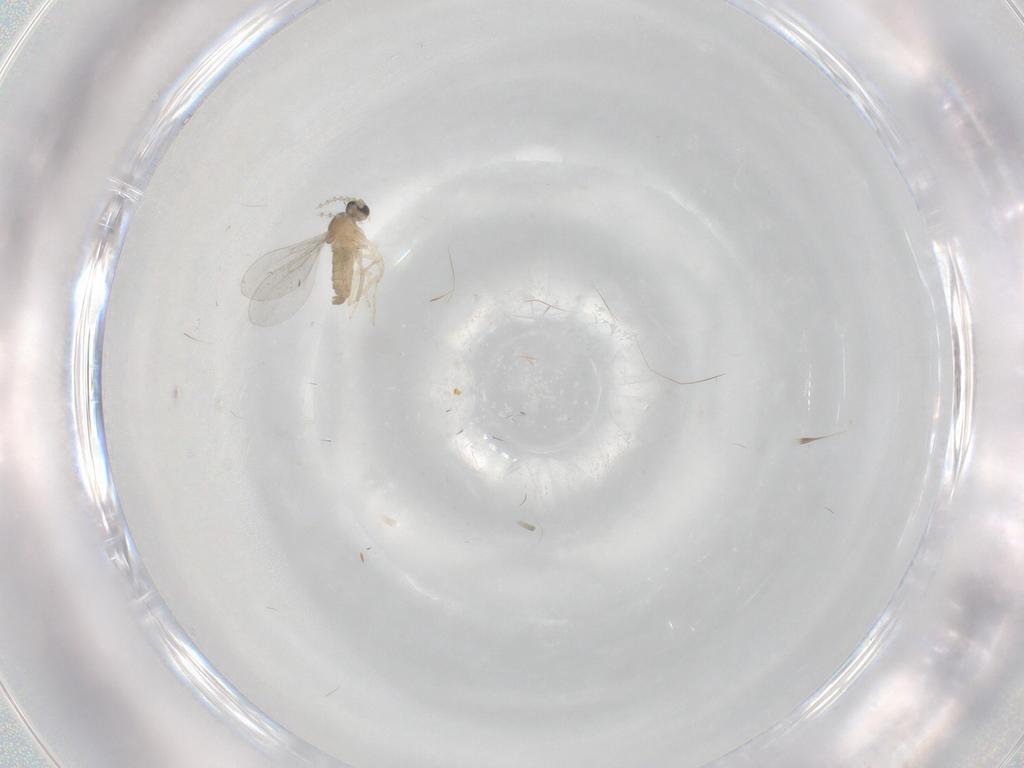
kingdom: Animalia
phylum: Arthropoda
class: Insecta
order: Diptera
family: Cecidomyiidae
